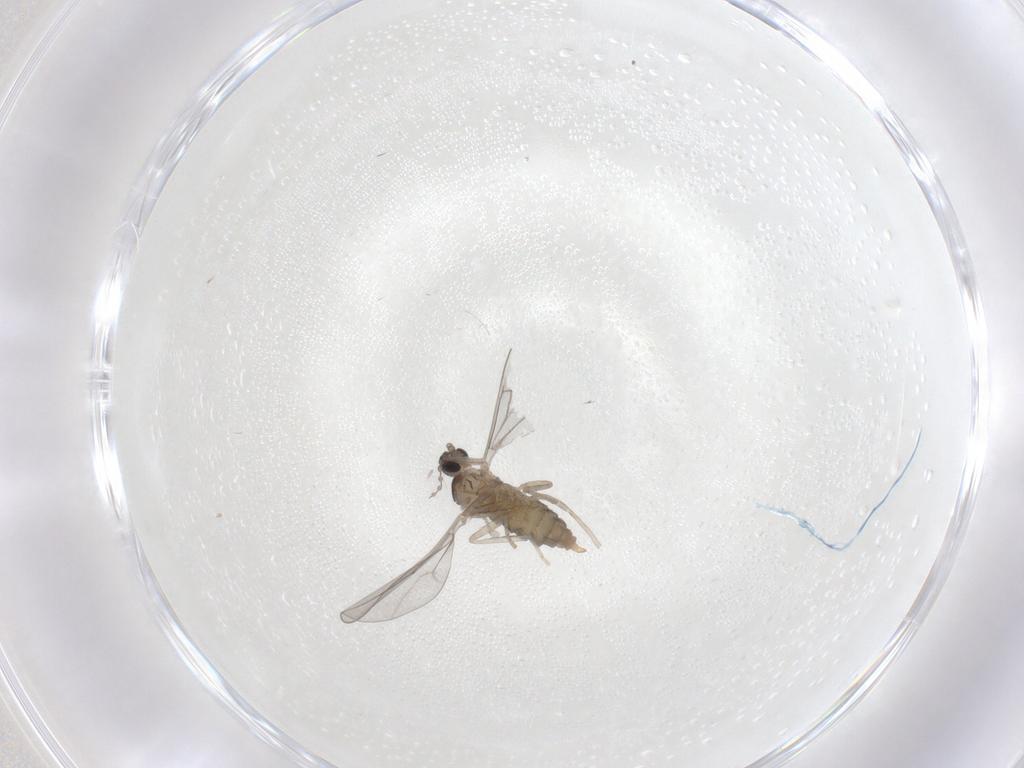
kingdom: Animalia
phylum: Arthropoda
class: Insecta
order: Diptera
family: Cecidomyiidae
